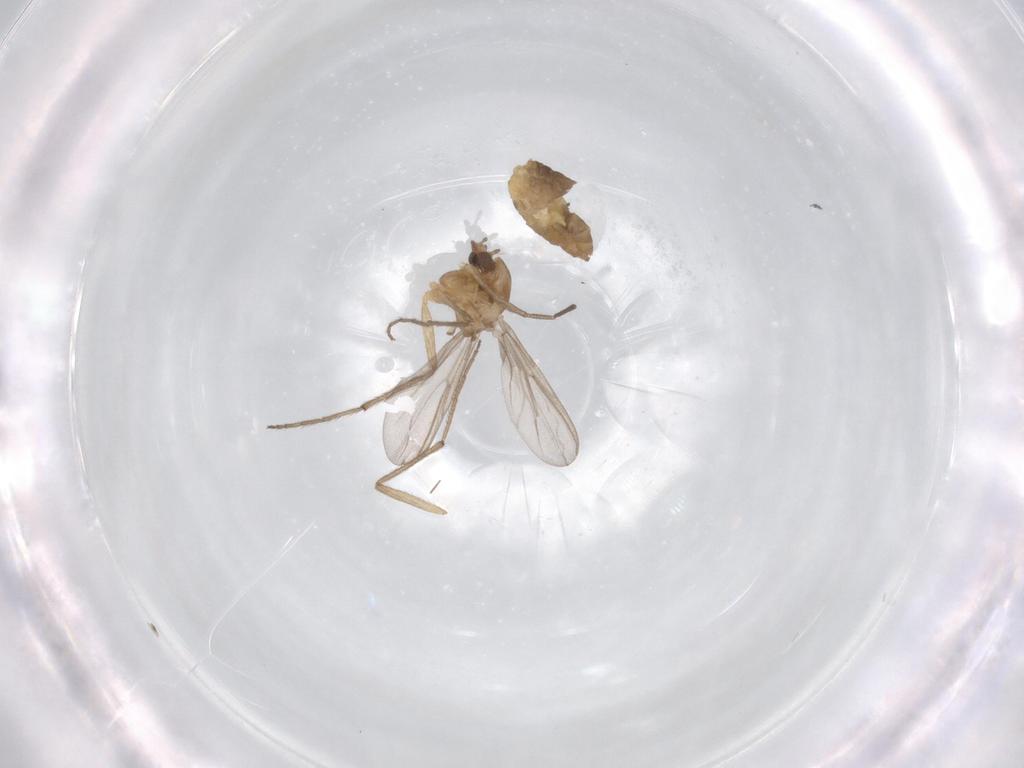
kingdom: Animalia
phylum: Arthropoda
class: Insecta
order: Diptera
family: Chironomidae
